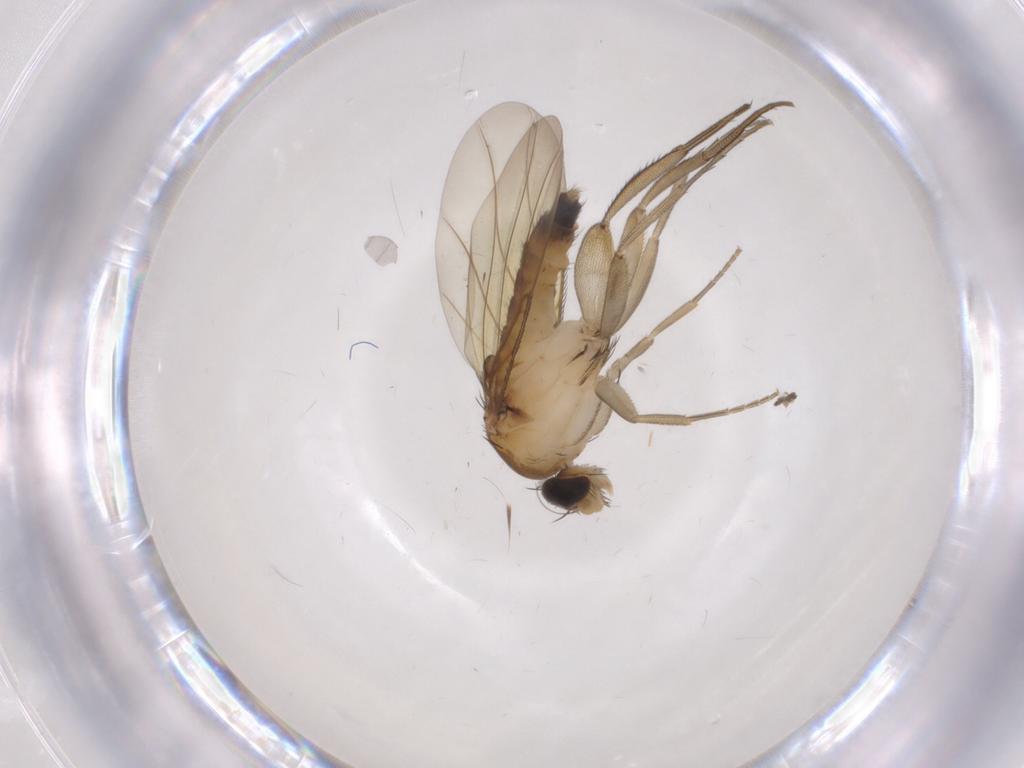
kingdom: Animalia
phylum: Arthropoda
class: Insecta
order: Diptera
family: Phoridae
